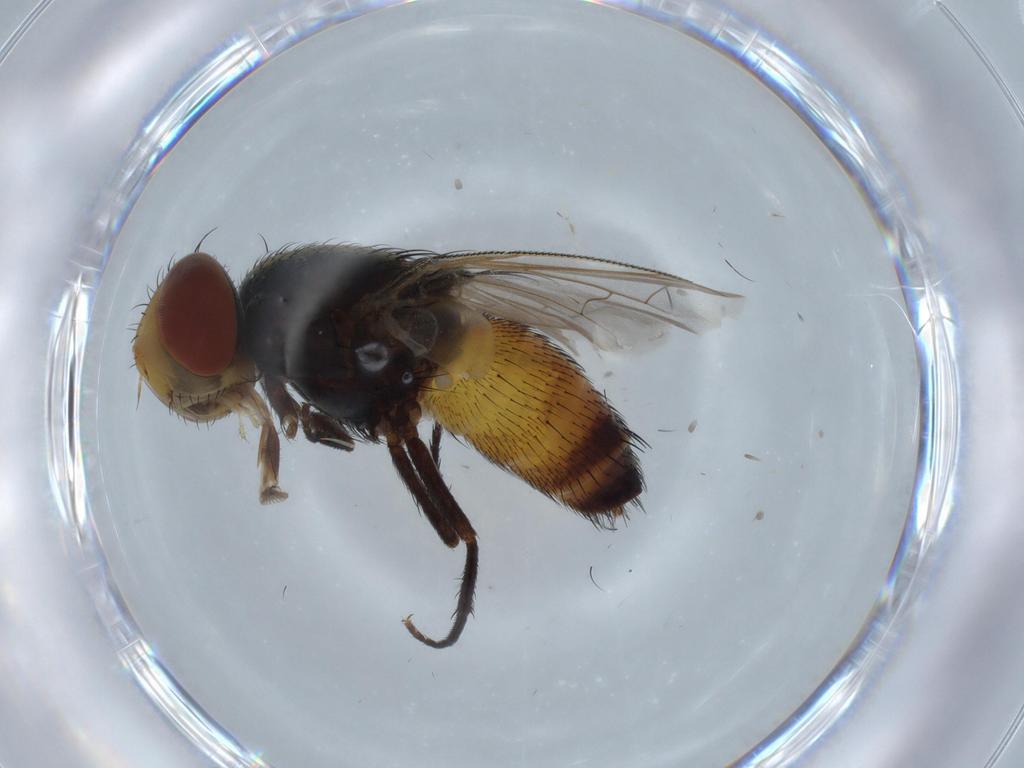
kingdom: Animalia
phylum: Arthropoda
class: Insecta
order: Diptera
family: Sarcophagidae
